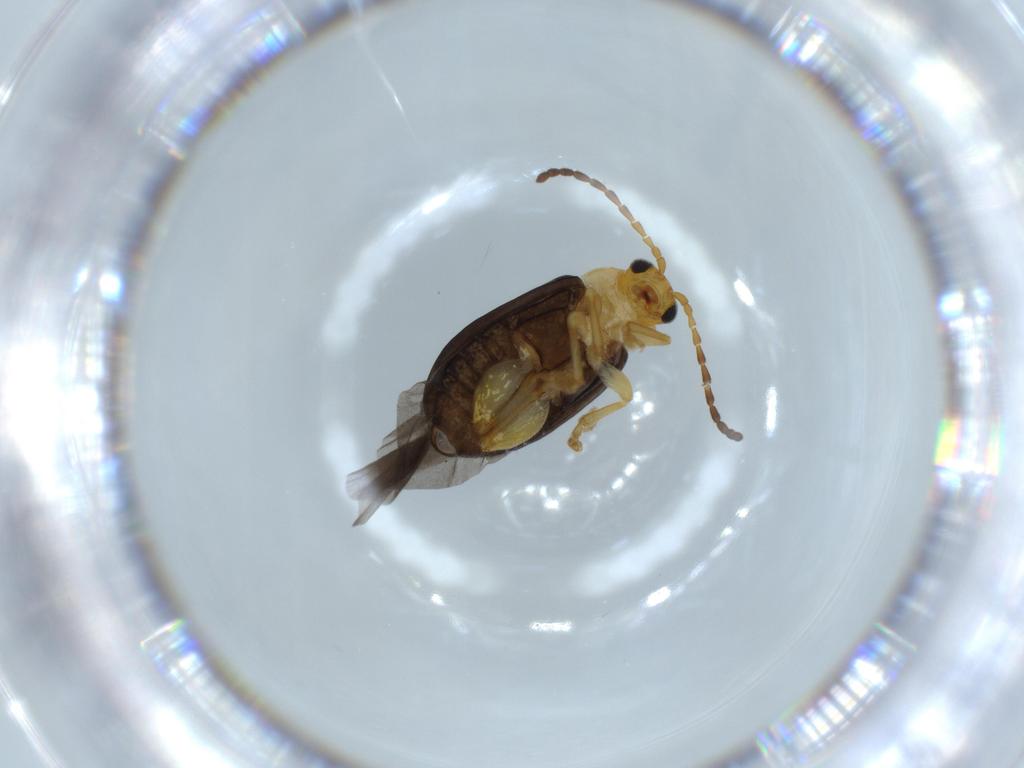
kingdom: Animalia
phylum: Arthropoda
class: Insecta
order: Coleoptera
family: Chrysomelidae
